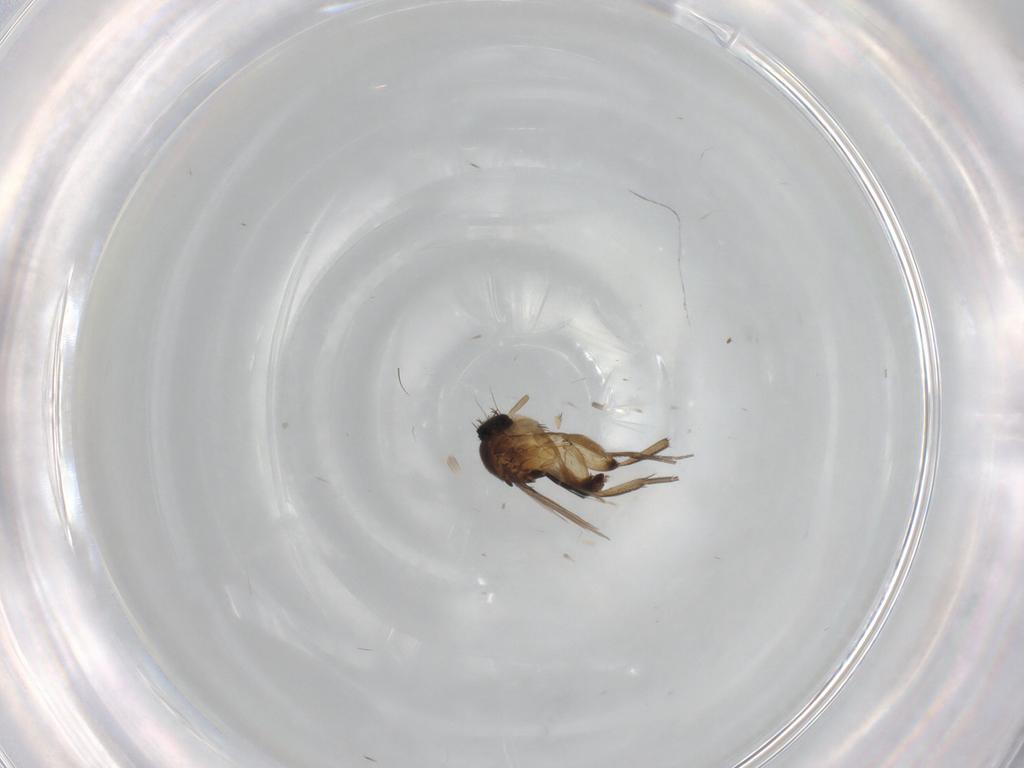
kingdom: Animalia
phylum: Arthropoda
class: Insecta
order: Diptera
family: Phoridae
